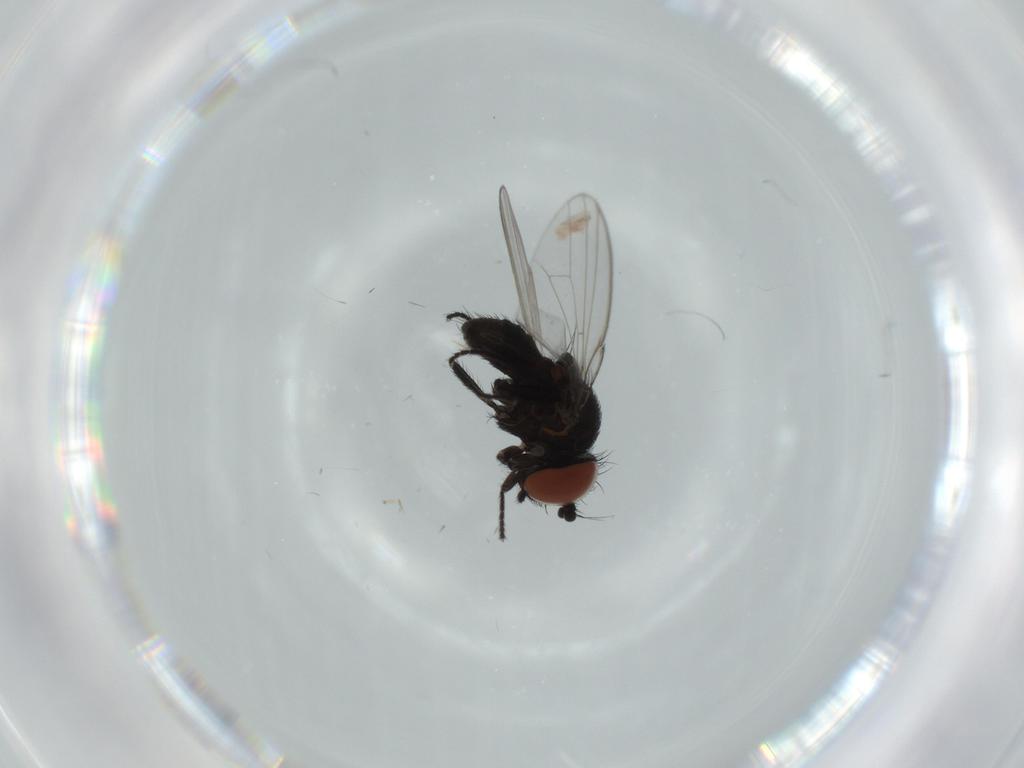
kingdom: Animalia
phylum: Arthropoda
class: Insecta
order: Diptera
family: Milichiidae
